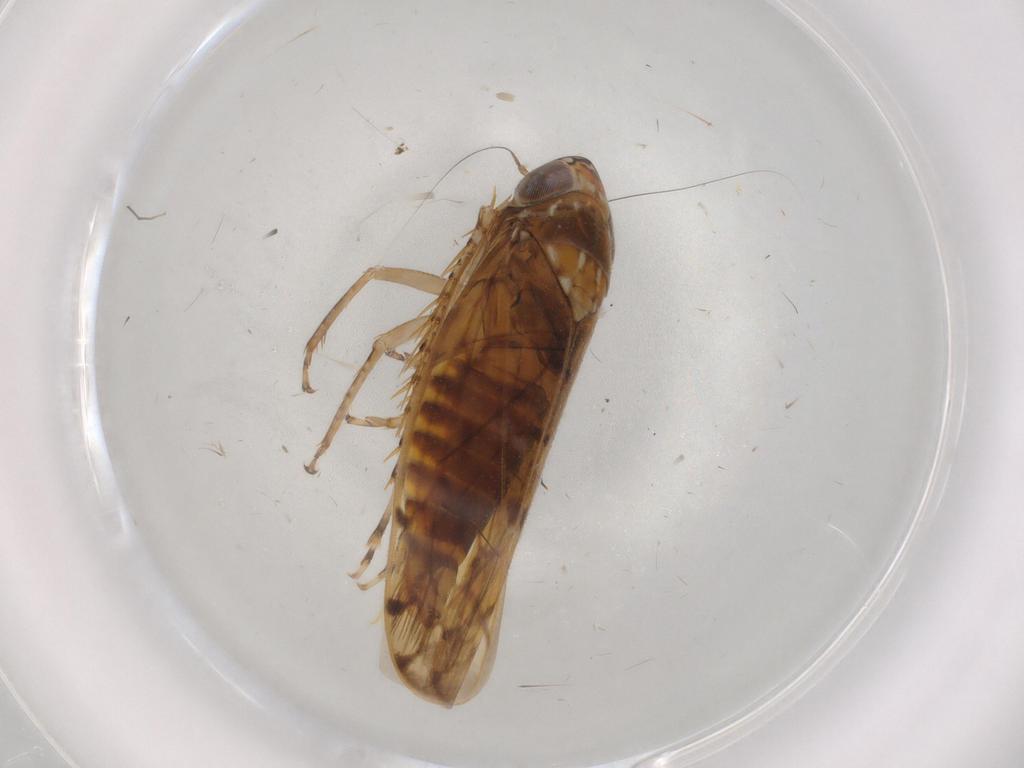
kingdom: Animalia
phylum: Arthropoda
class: Insecta
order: Hemiptera
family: Cicadellidae
